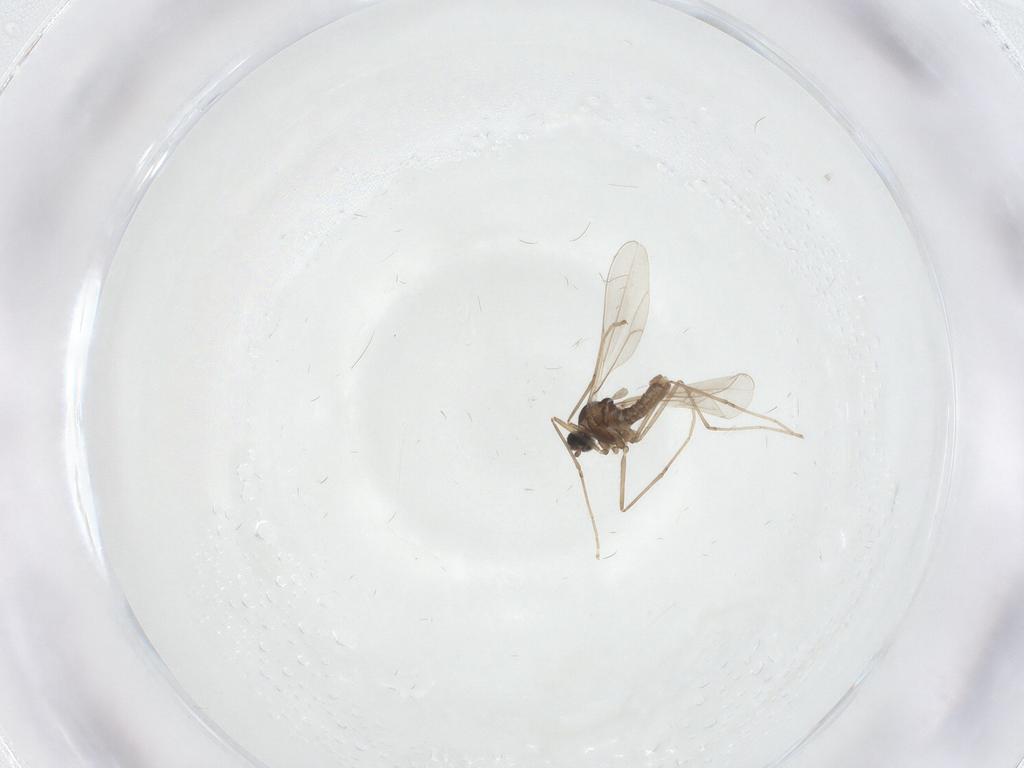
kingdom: Animalia
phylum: Arthropoda
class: Insecta
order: Diptera
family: Cecidomyiidae
